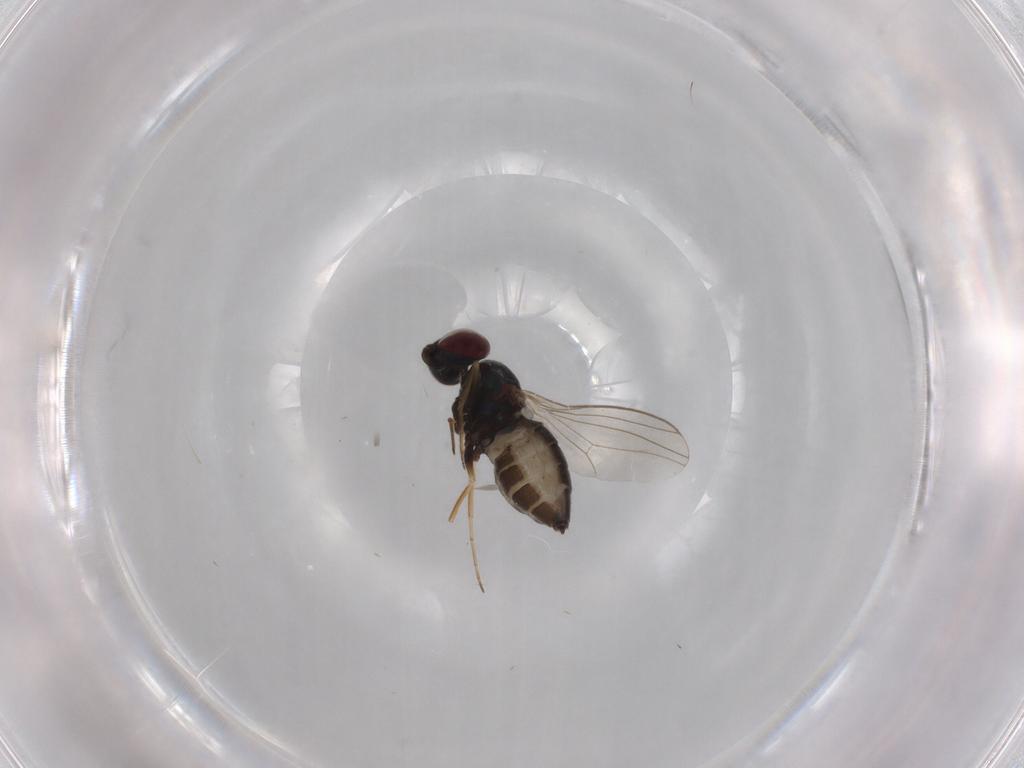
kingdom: Animalia
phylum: Arthropoda
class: Insecta
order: Diptera
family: Dolichopodidae
